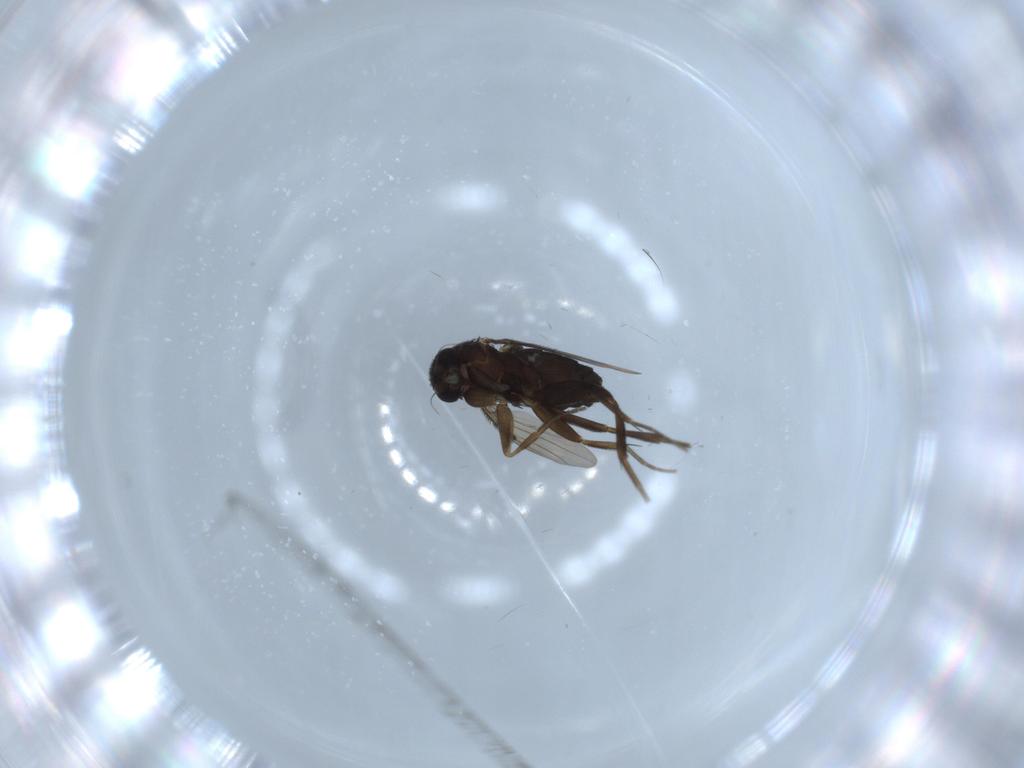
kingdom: Animalia
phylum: Arthropoda
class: Insecta
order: Diptera
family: Phoridae
